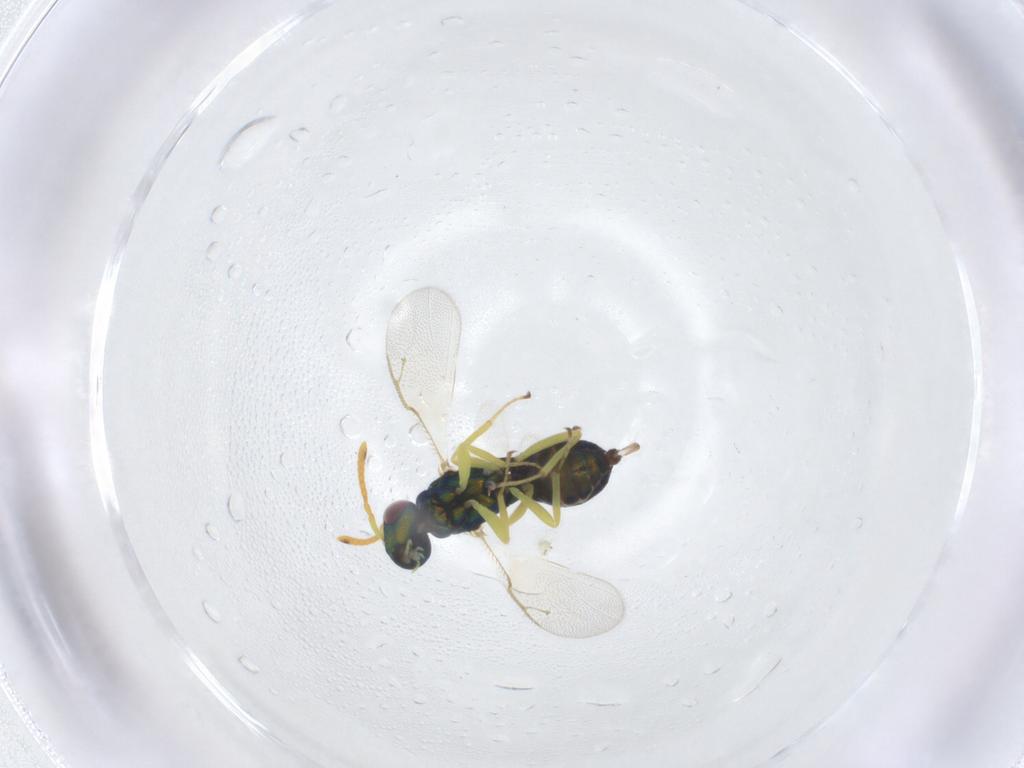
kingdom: Animalia
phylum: Arthropoda
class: Insecta
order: Hymenoptera
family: Pteromalidae
